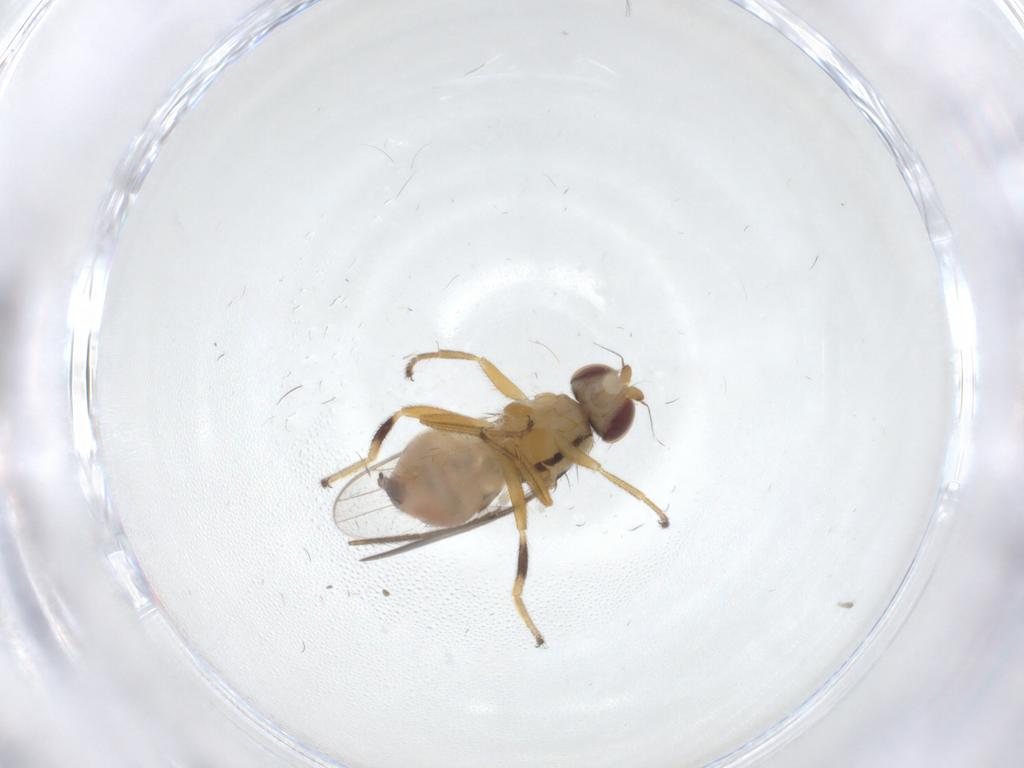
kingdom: Animalia
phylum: Arthropoda
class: Insecta
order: Diptera
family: Chloropidae
